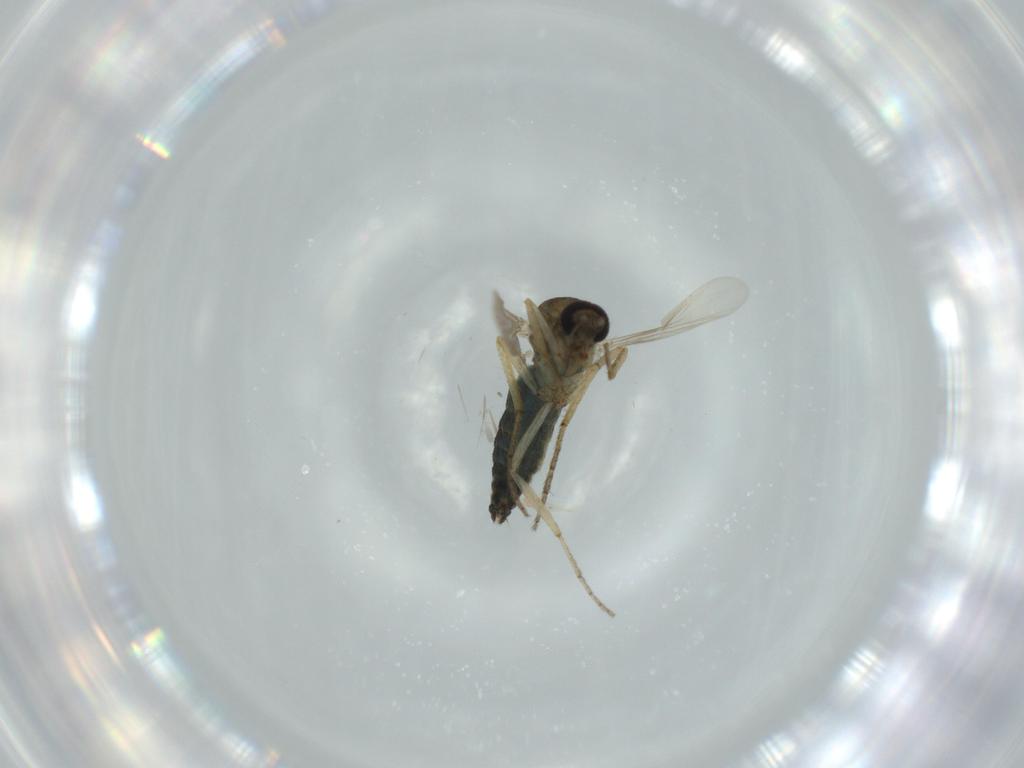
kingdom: Animalia
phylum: Arthropoda
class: Insecta
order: Diptera
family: Ceratopogonidae
